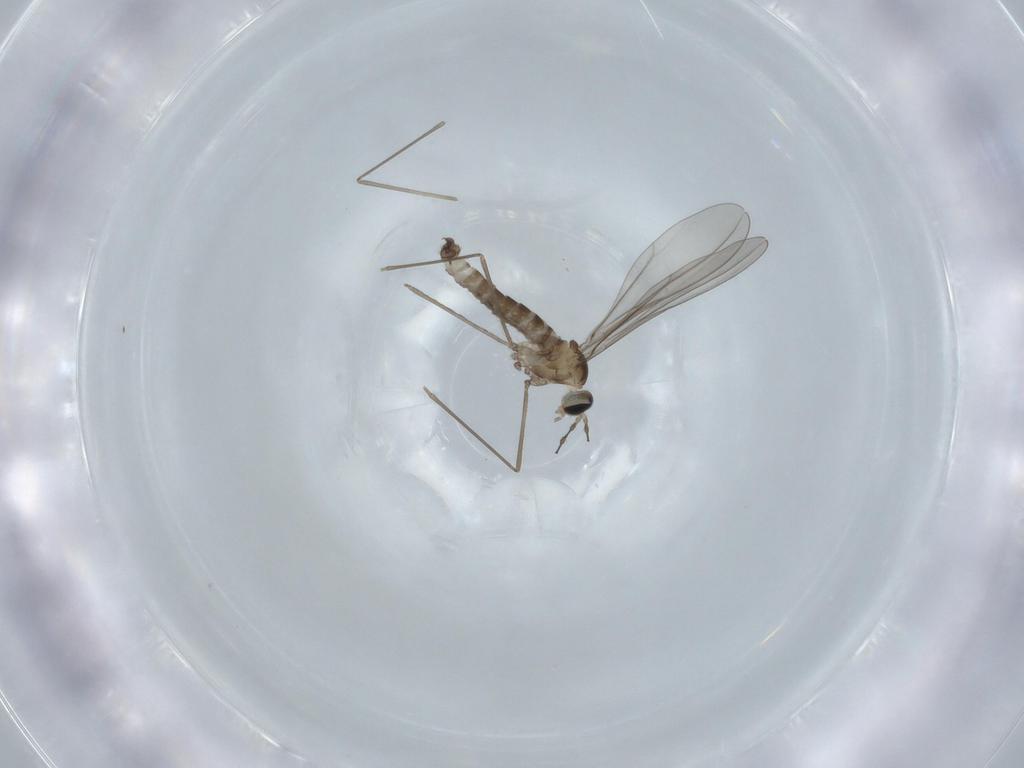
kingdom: Animalia
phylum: Arthropoda
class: Insecta
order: Diptera
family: Cecidomyiidae
